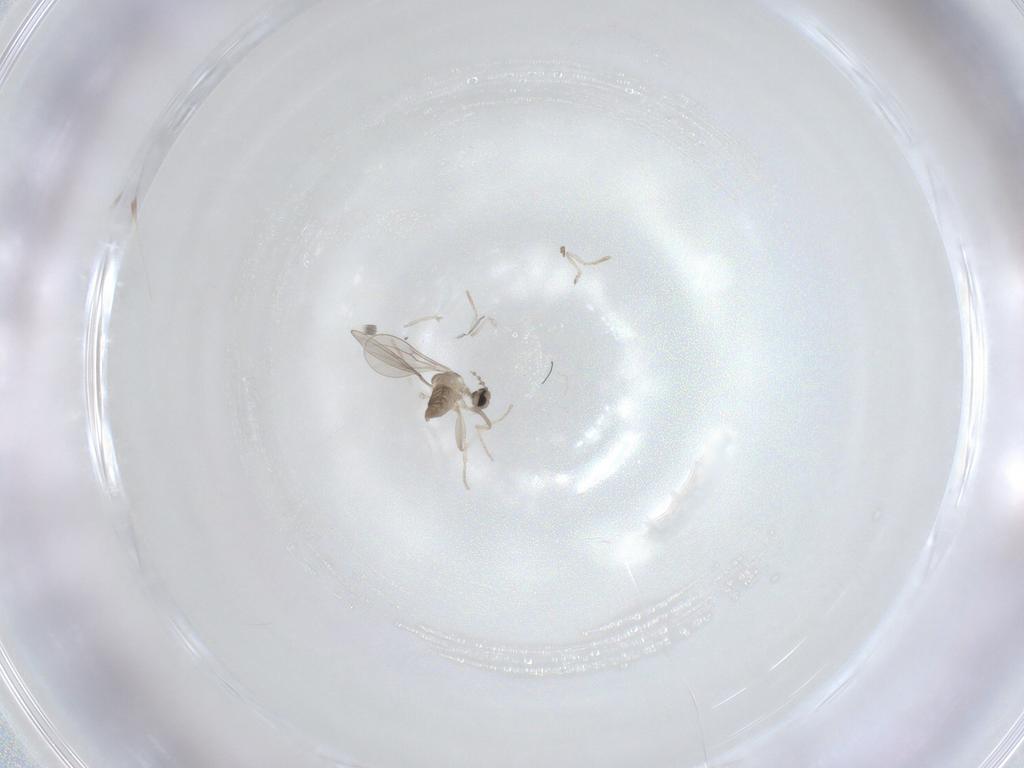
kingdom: Animalia
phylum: Arthropoda
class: Insecta
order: Diptera
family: Cecidomyiidae
